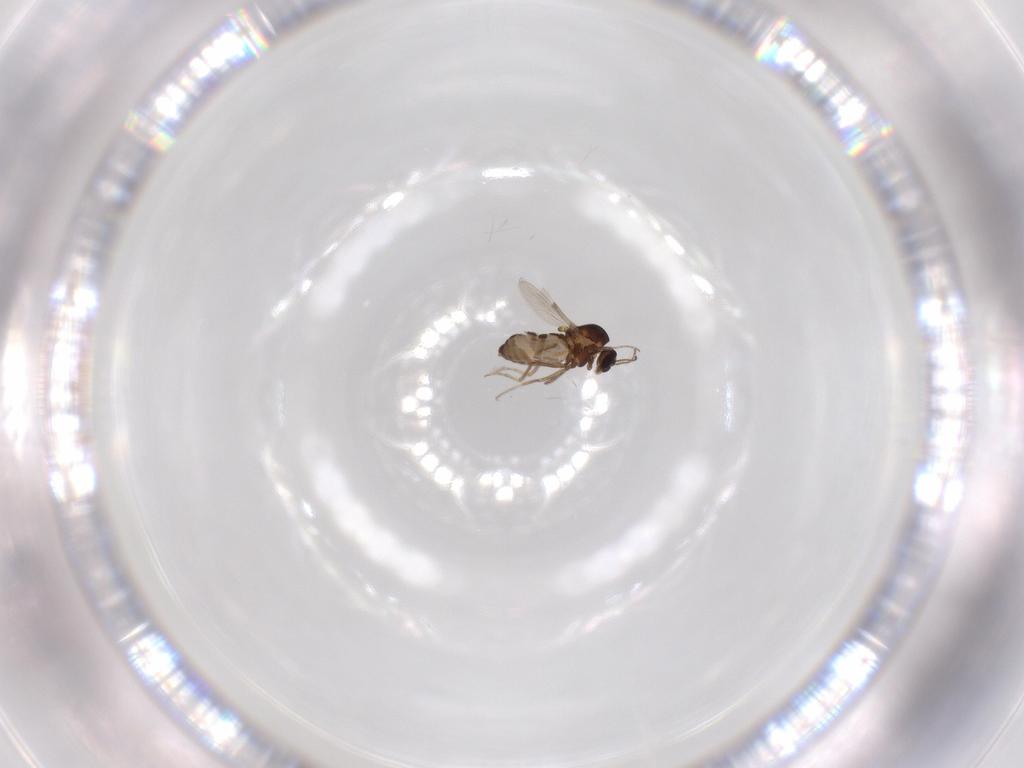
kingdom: Animalia
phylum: Arthropoda
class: Insecta
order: Diptera
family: Ceratopogonidae
